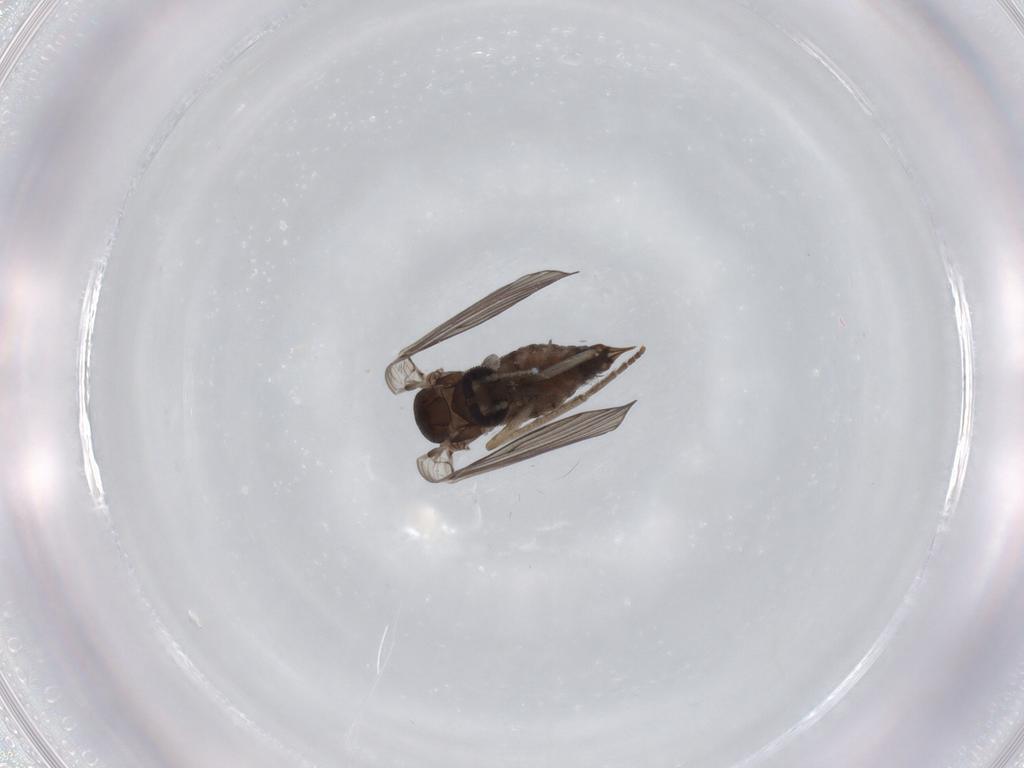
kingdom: Animalia
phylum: Arthropoda
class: Insecta
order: Diptera
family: Psychodidae
